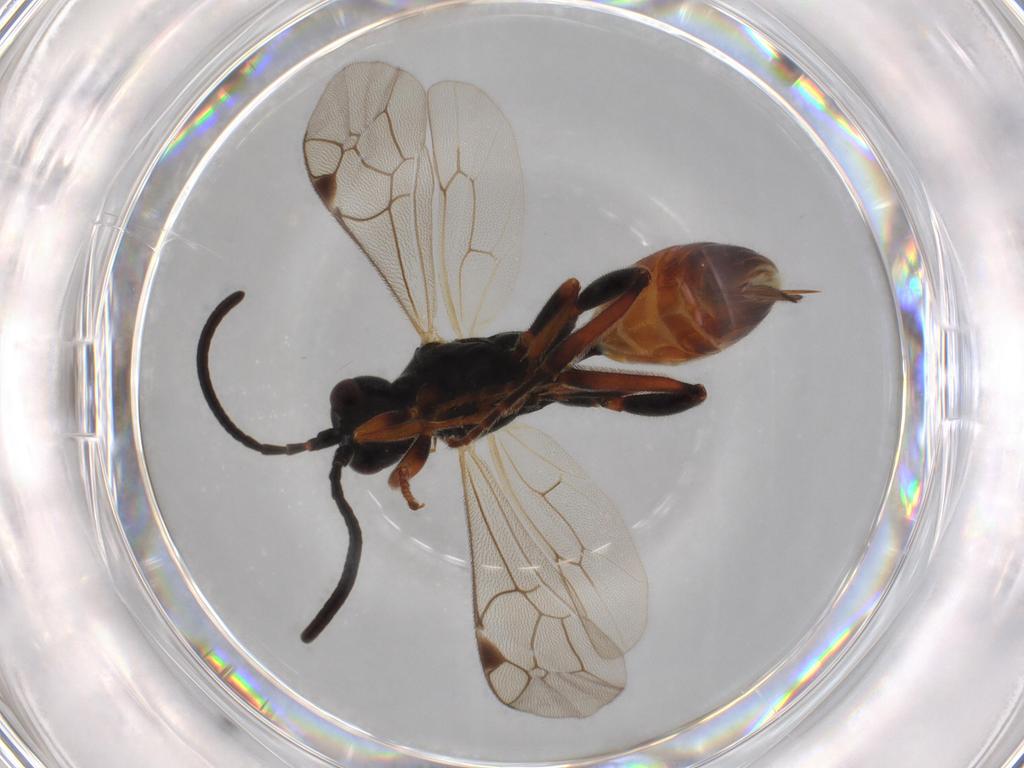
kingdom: Animalia
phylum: Arthropoda
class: Insecta
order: Hymenoptera
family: Ichneumonidae
